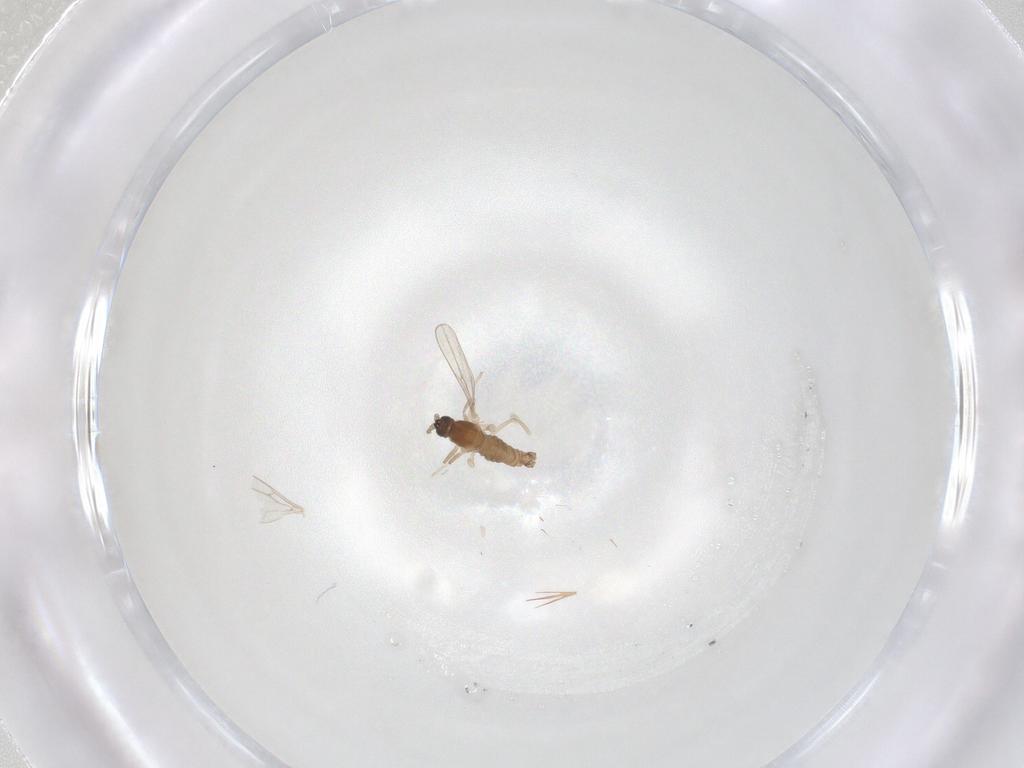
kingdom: Animalia
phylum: Arthropoda
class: Insecta
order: Diptera
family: Cecidomyiidae
